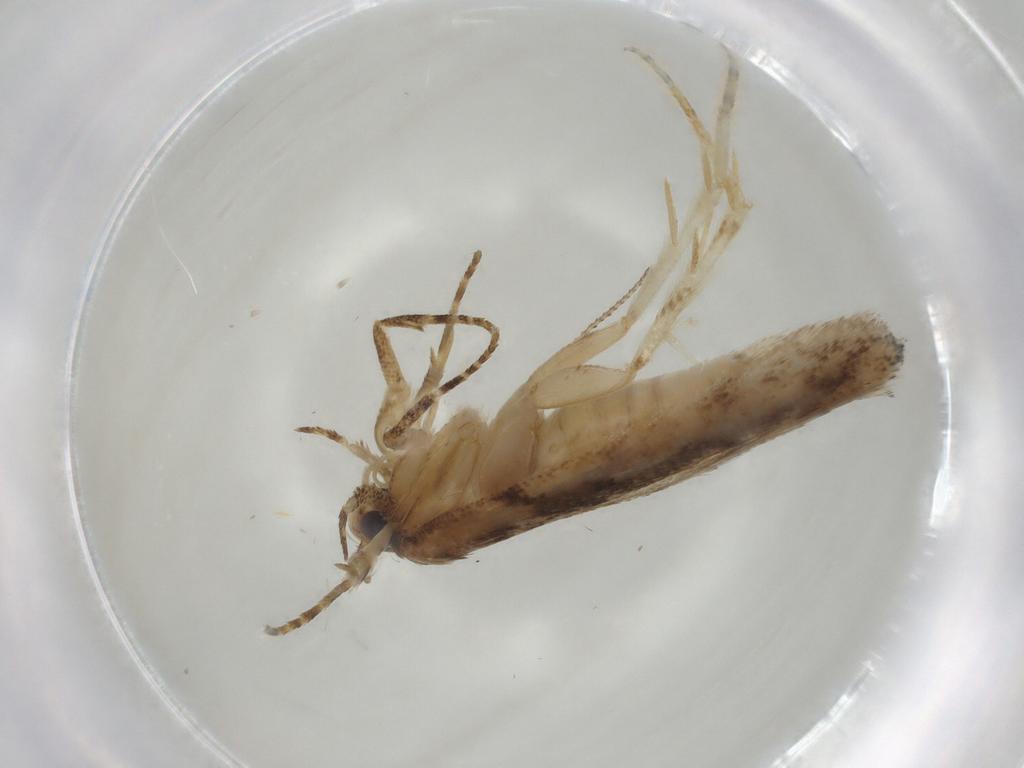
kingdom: Animalia
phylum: Arthropoda
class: Insecta
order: Lepidoptera
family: Gelechiidae
